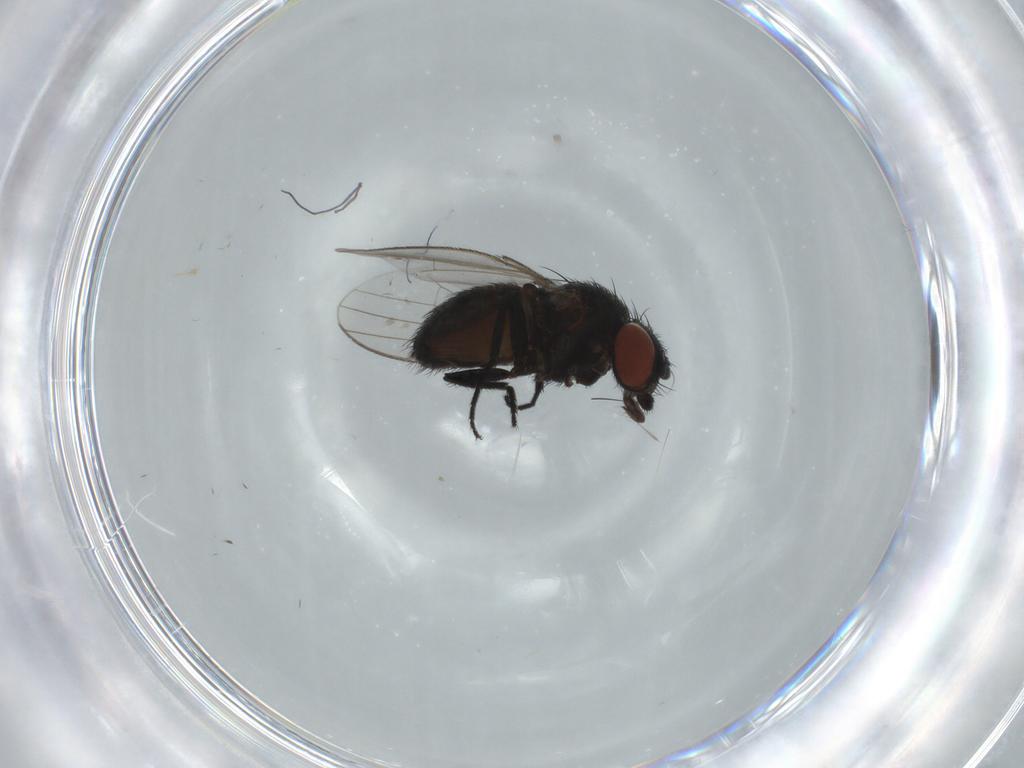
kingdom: Animalia
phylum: Arthropoda
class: Insecta
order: Diptera
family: Milichiidae
